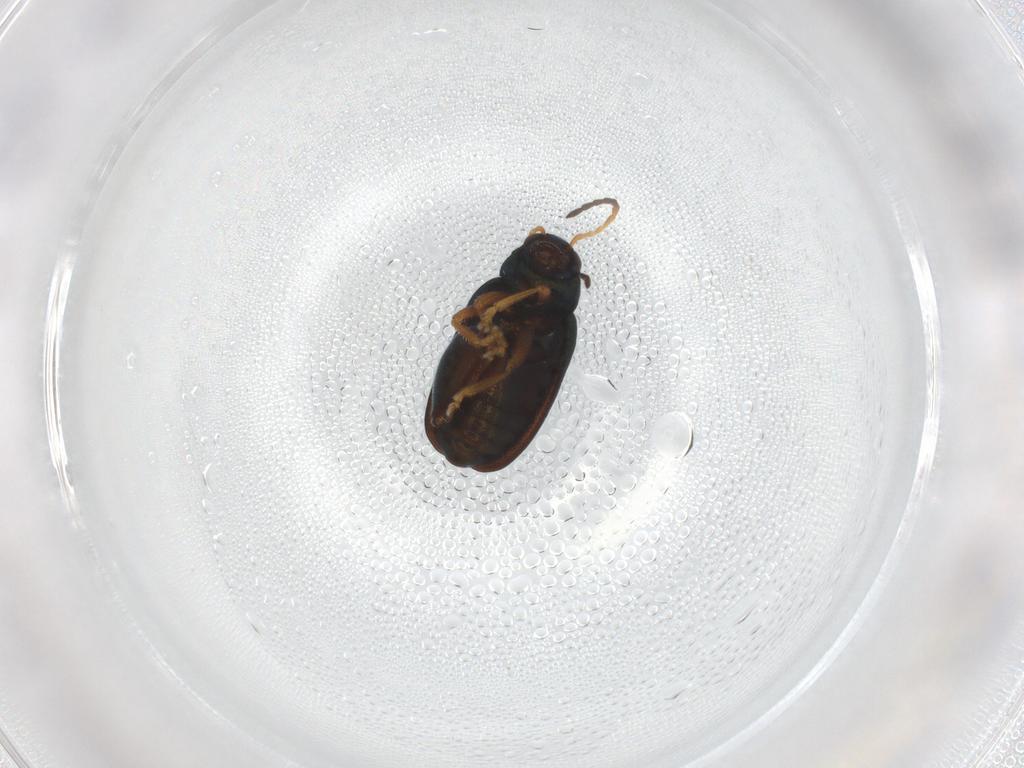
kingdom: Animalia
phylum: Arthropoda
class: Insecta
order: Coleoptera
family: Chrysomelidae
